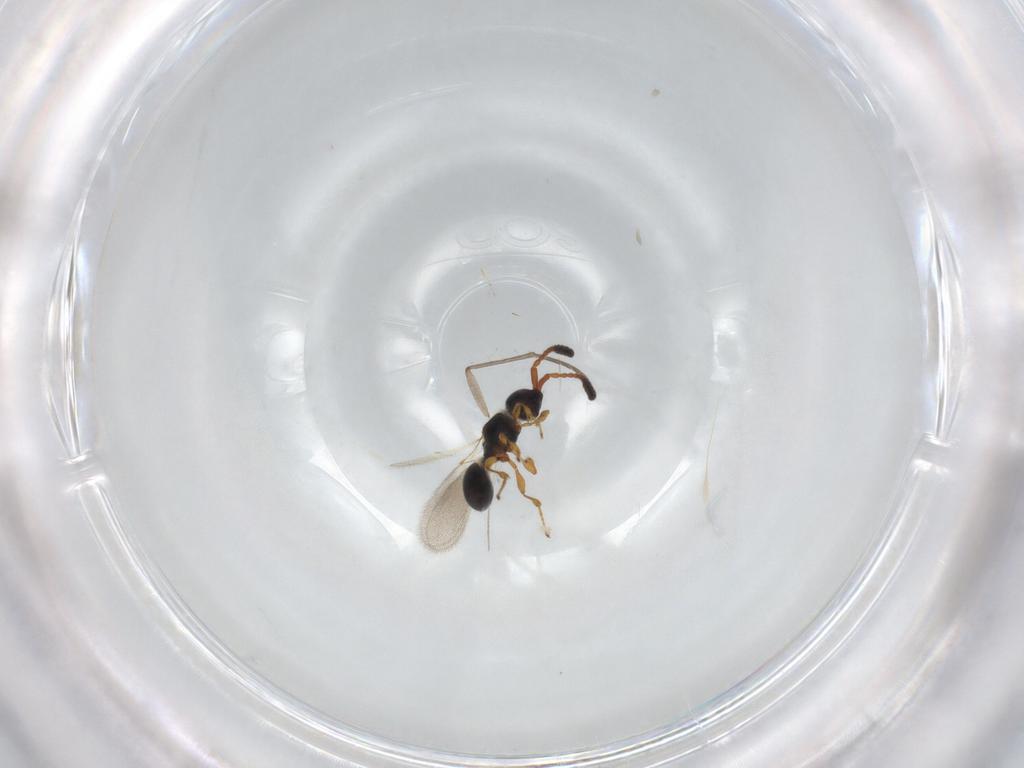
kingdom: Animalia
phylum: Arthropoda
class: Insecta
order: Hymenoptera
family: Diapriidae
